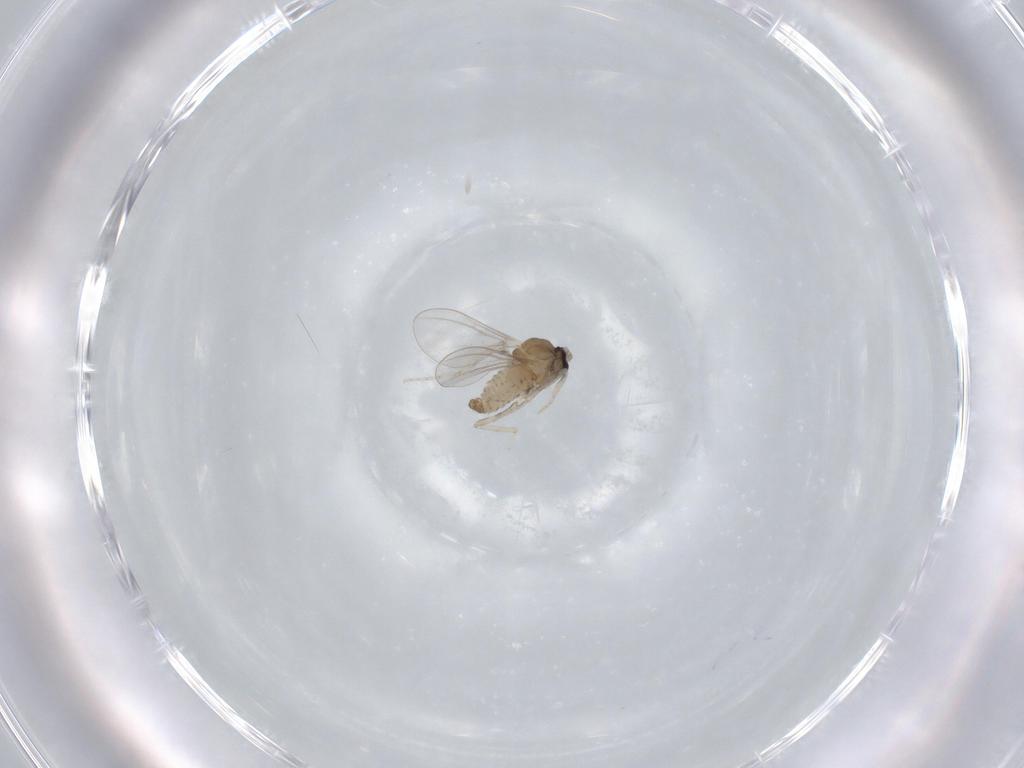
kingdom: Animalia
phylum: Arthropoda
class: Insecta
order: Diptera
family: Cecidomyiidae
